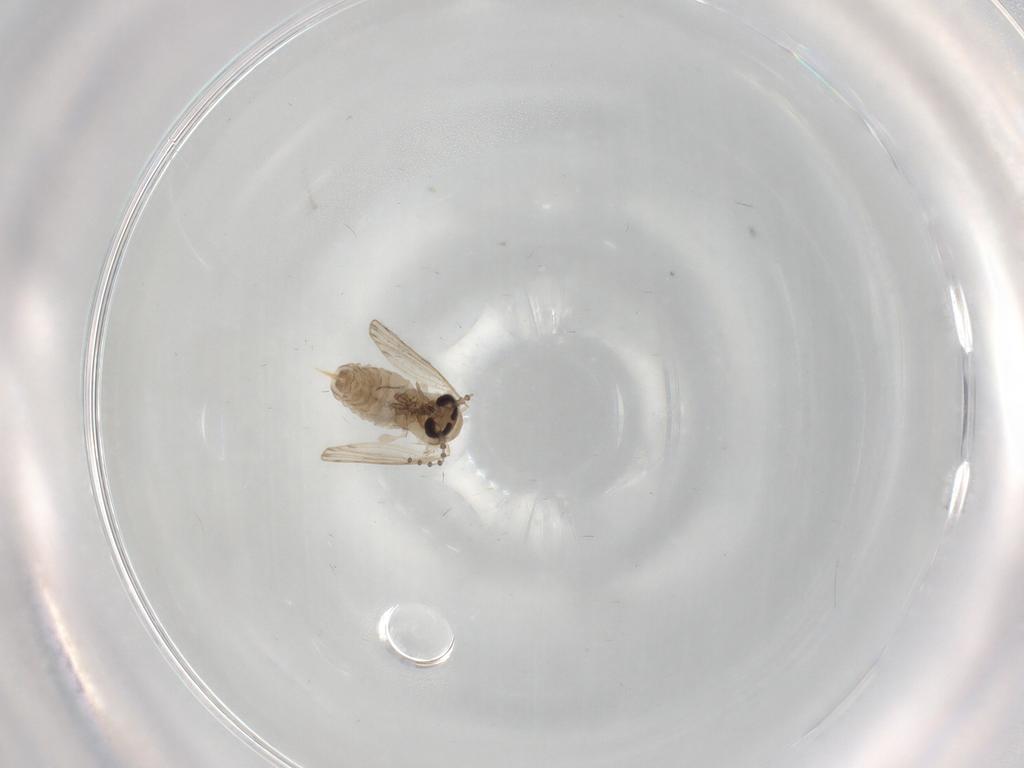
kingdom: Animalia
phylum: Arthropoda
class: Insecta
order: Diptera
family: Psychodidae
